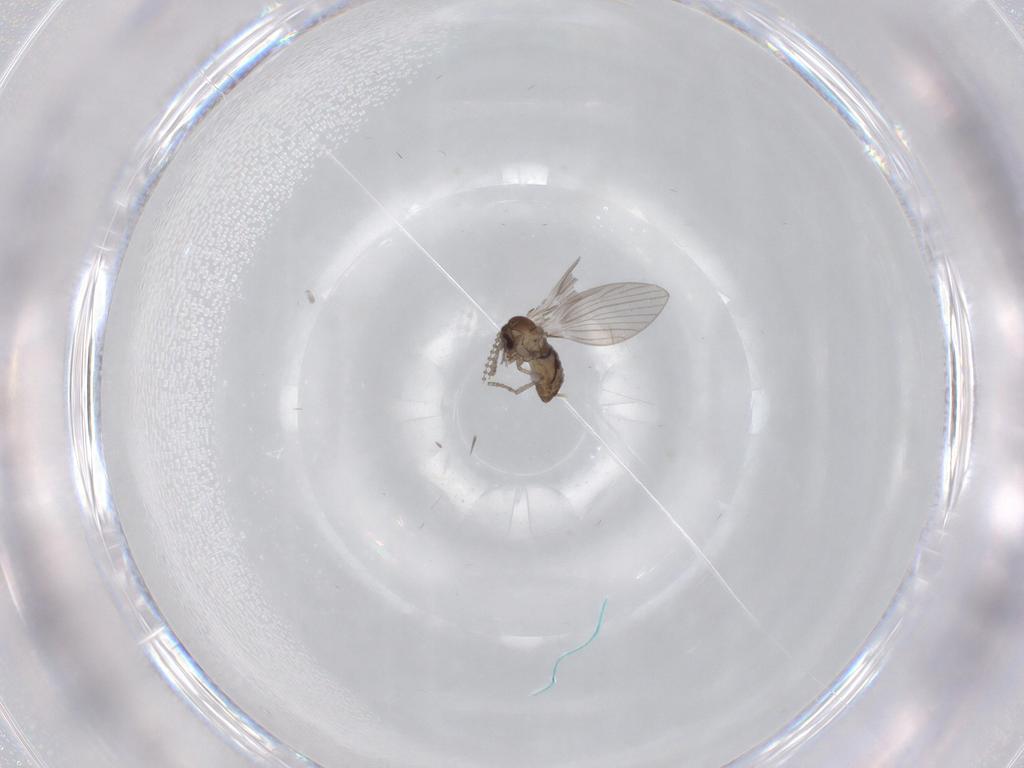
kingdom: Animalia
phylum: Arthropoda
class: Insecta
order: Diptera
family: Psychodidae
